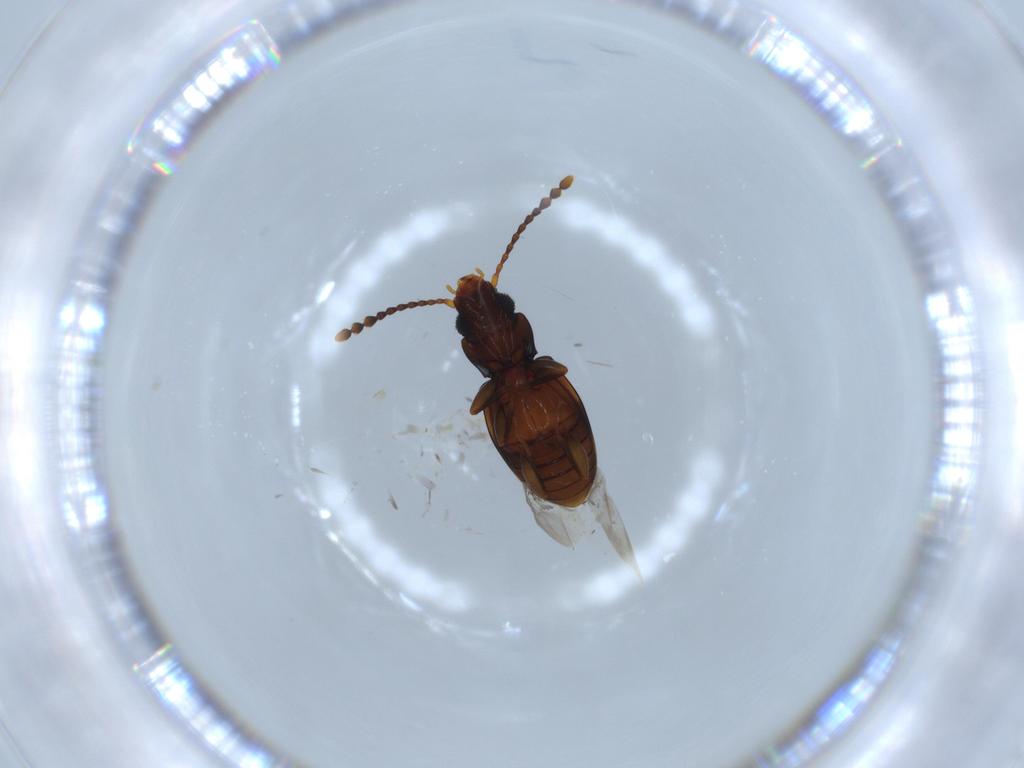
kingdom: Animalia
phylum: Arthropoda
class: Insecta
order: Coleoptera
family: Laemophloeidae
